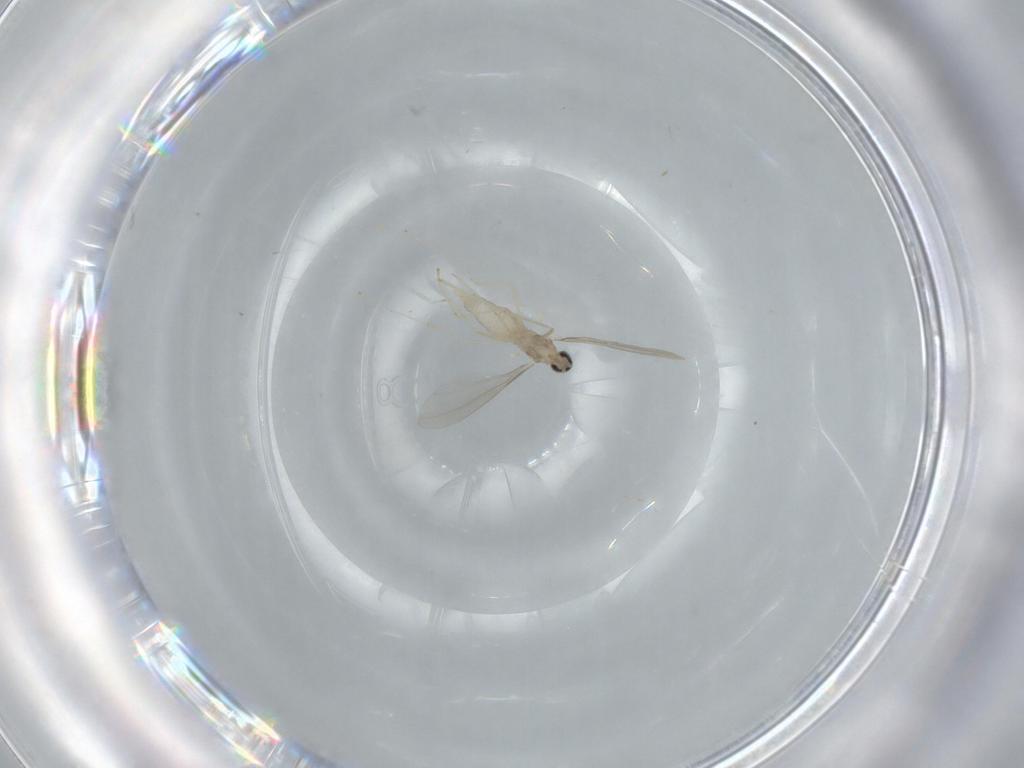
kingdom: Animalia
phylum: Arthropoda
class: Insecta
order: Diptera
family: Cecidomyiidae
